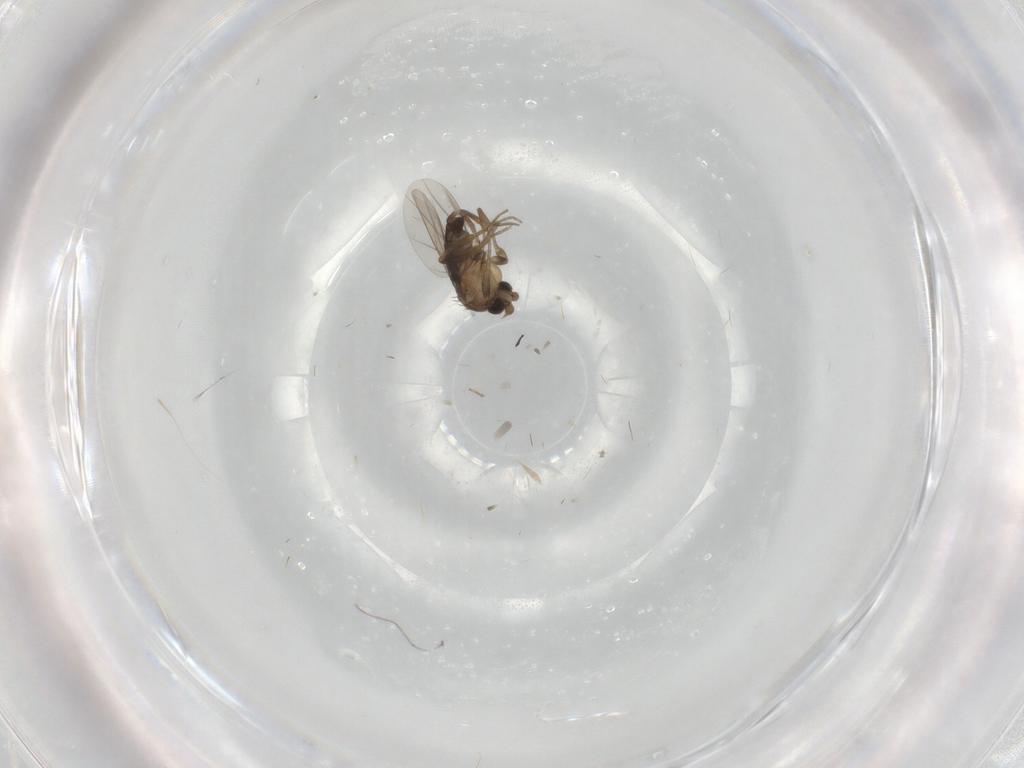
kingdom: Animalia
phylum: Arthropoda
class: Insecta
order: Diptera
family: Phoridae
